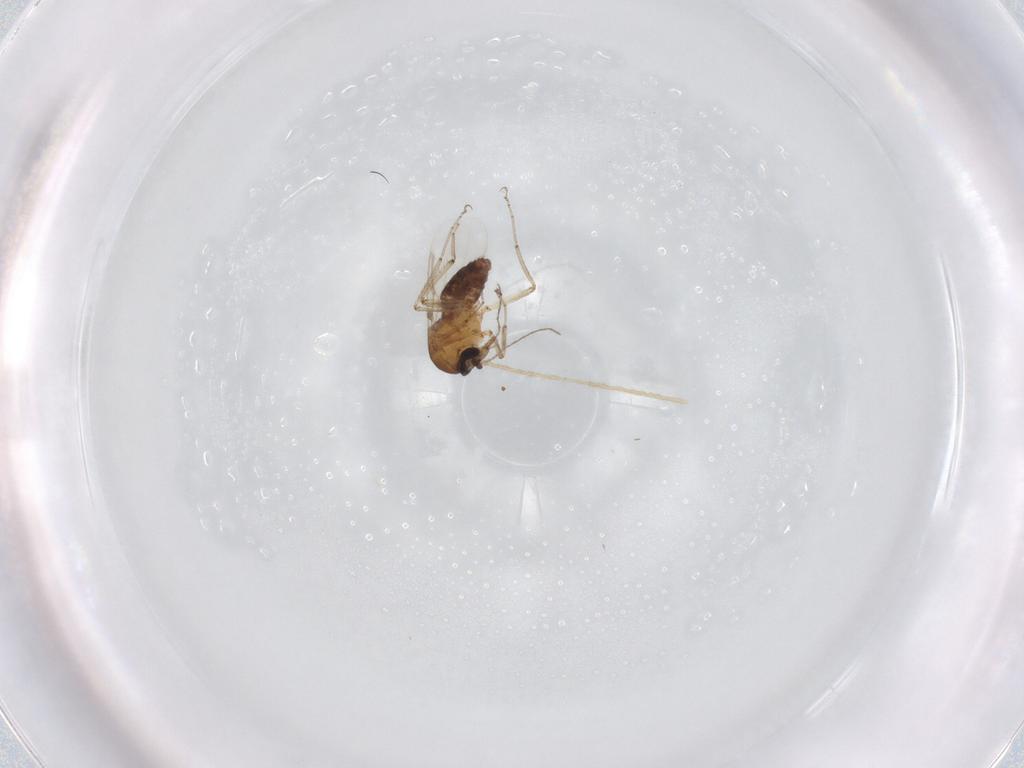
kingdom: Animalia
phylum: Arthropoda
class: Insecta
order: Diptera
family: Ceratopogonidae
